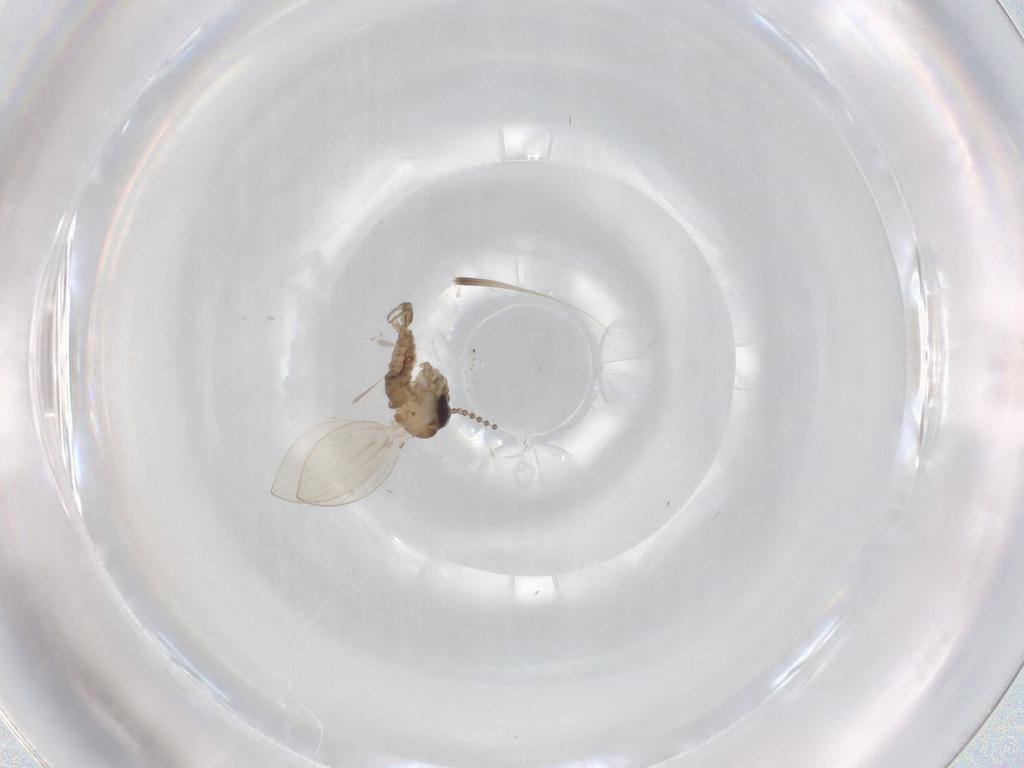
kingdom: Animalia
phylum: Arthropoda
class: Insecta
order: Diptera
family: Psychodidae
